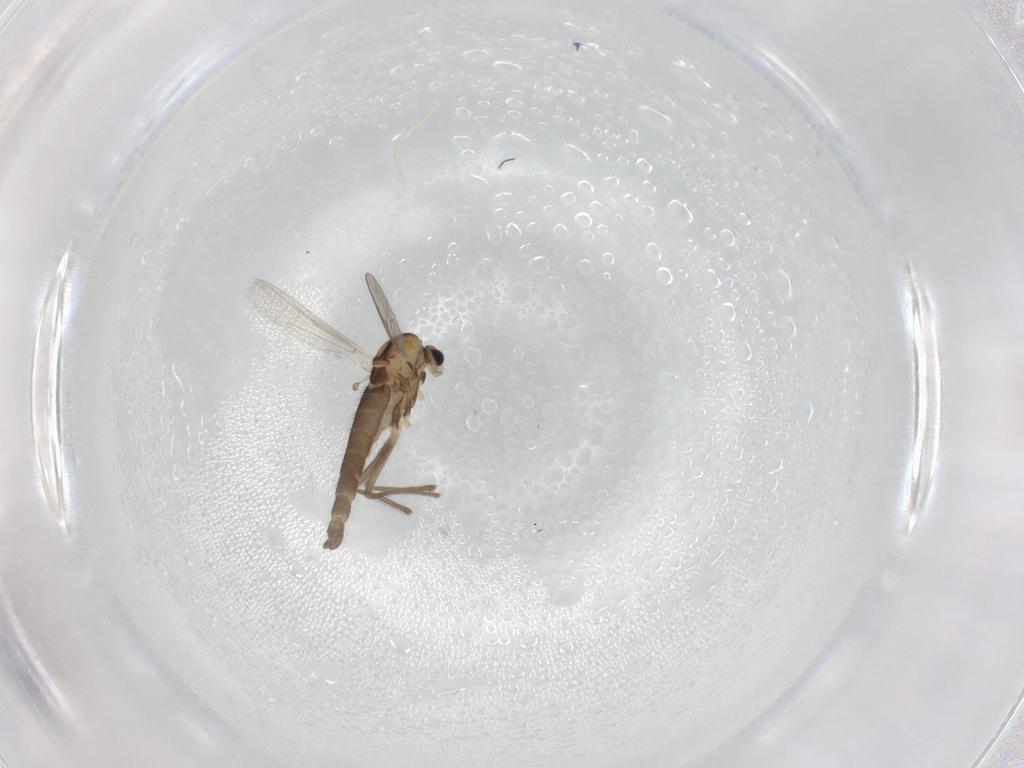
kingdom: Animalia
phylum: Arthropoda
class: Insecta
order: Diptera
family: Chironomidae
